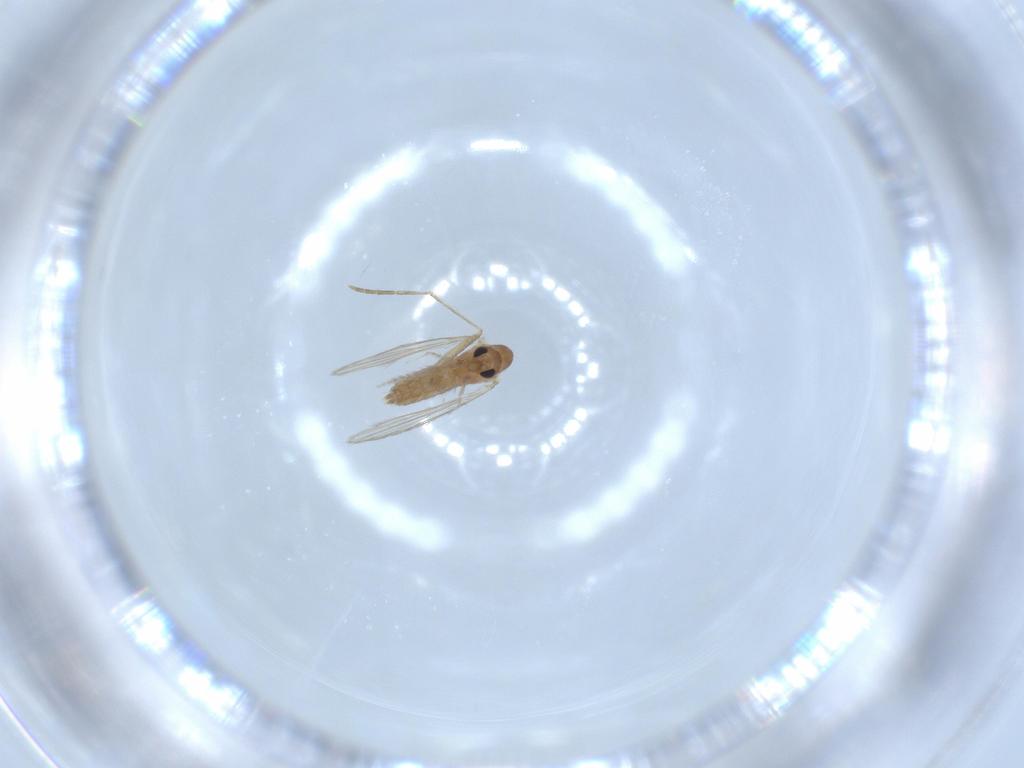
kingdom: Animalia
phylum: Arthropoda
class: Insecta
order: Diptera
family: Psychodidae
